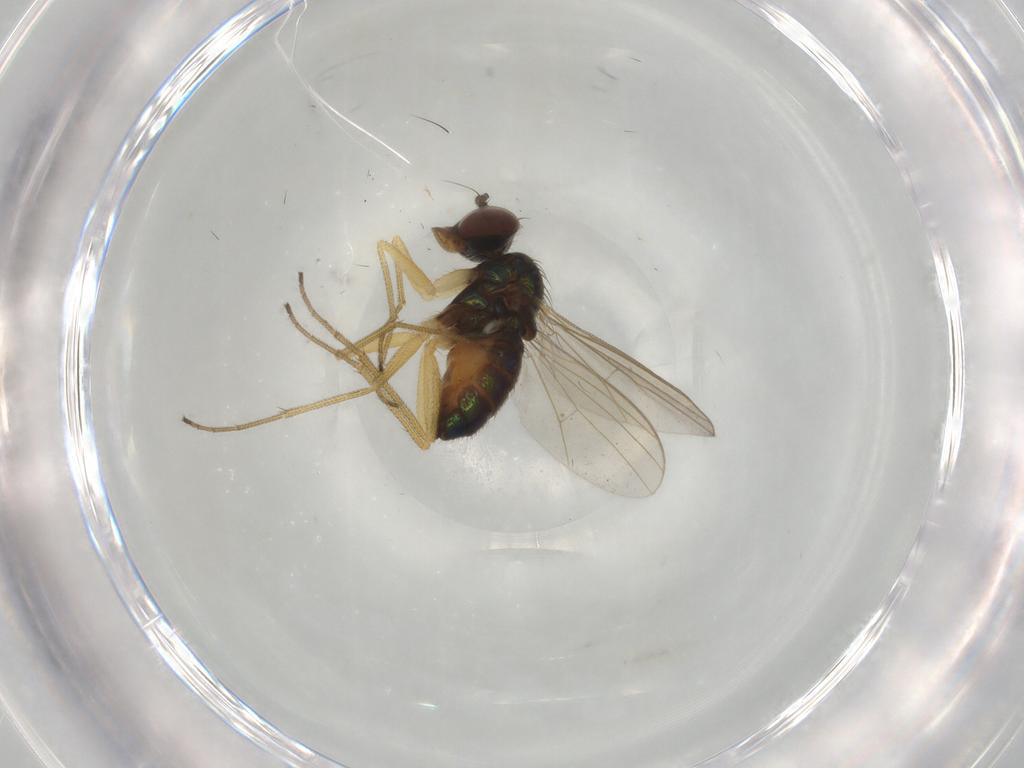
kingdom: Animalia
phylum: Arthropoda
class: Insecta
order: Diptera
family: Dolichopodidae
